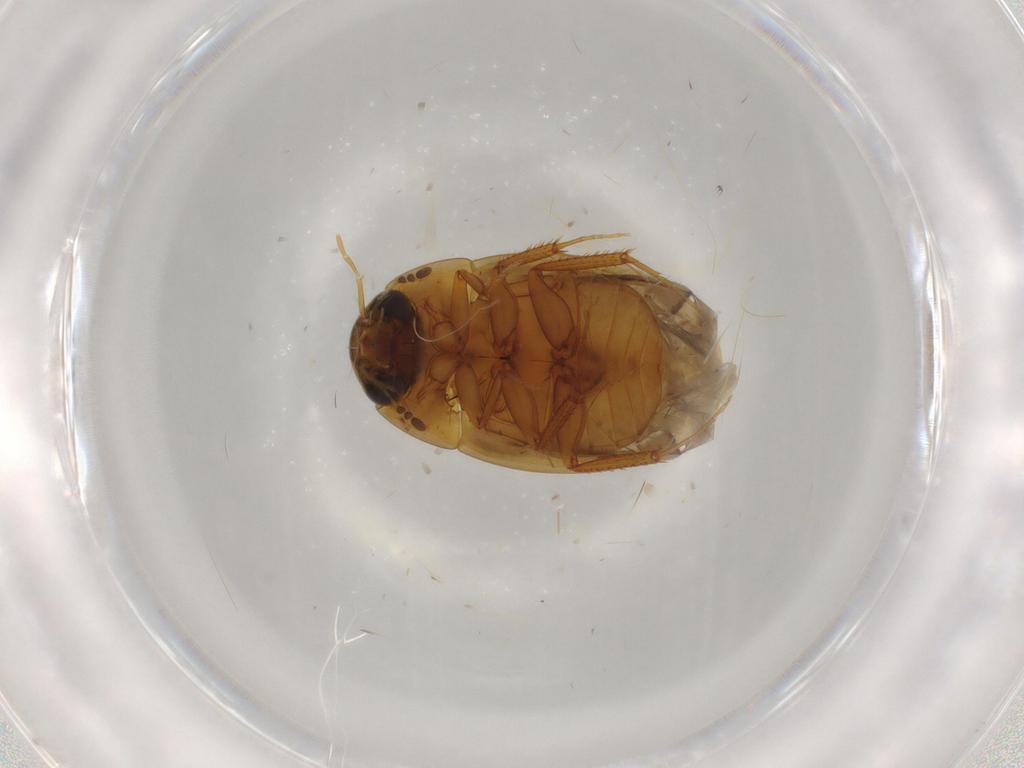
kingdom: Animalia
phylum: Arthropoda
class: Insecta
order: Coleoptera
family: Hydrophilidae
